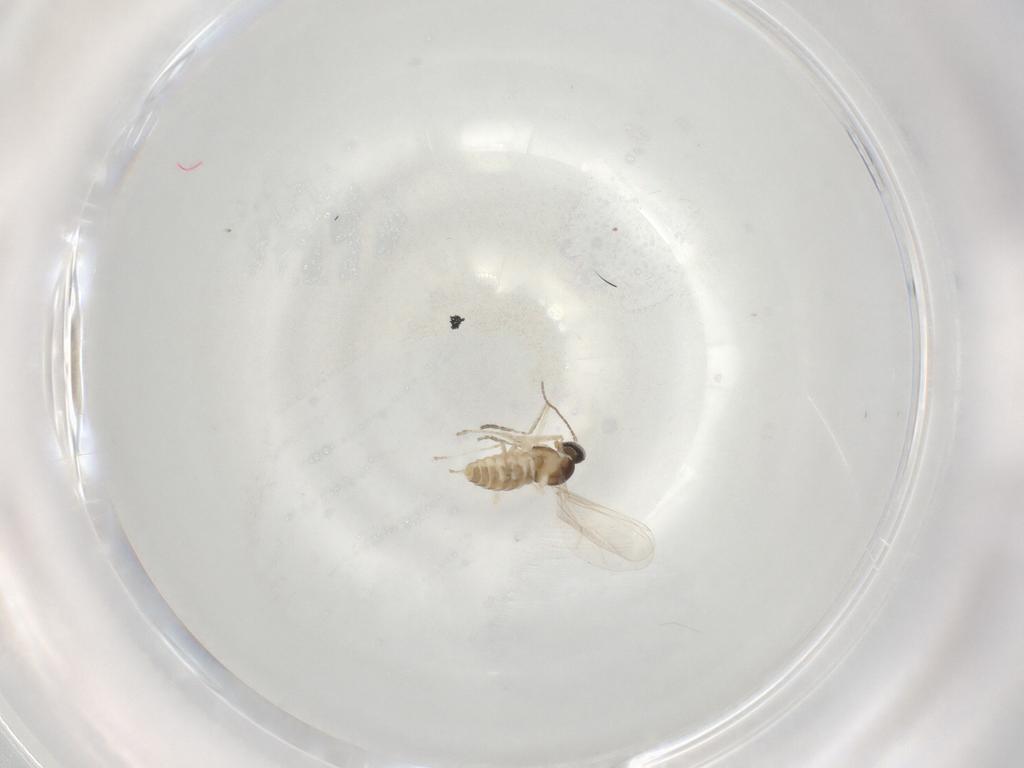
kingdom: Animalia
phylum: Arthropoda
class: Insecta
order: Diptera
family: Cecidomyiidae
